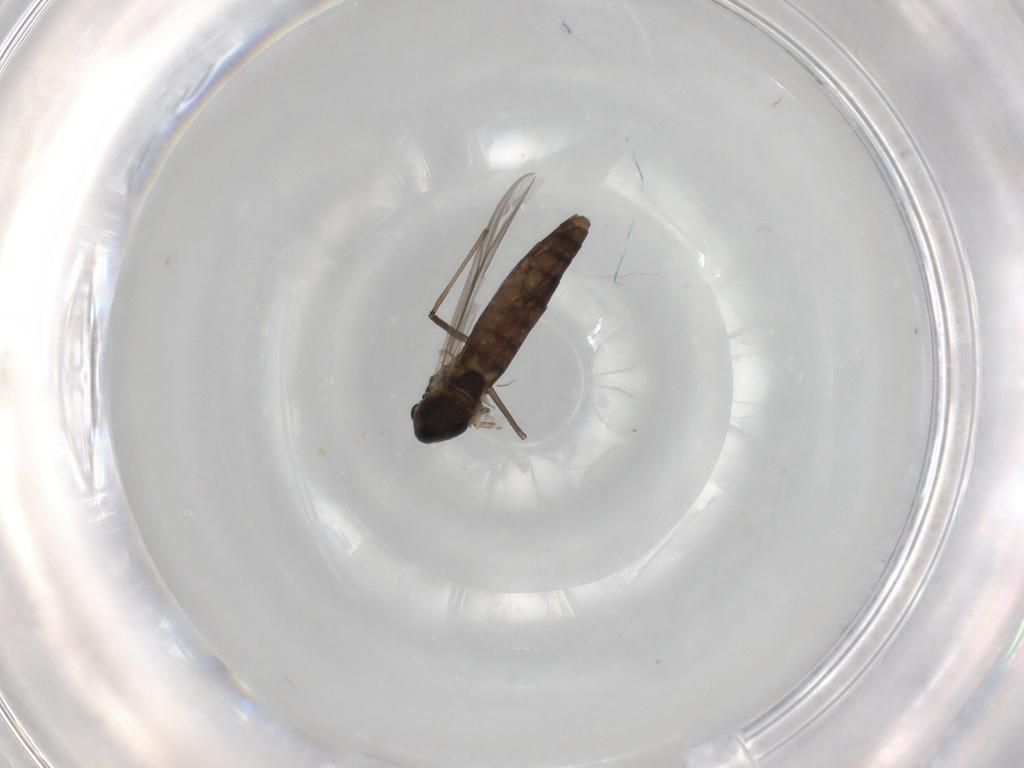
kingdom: Animalia
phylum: Arthropoda
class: Insecta
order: Diptera
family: Chironomidae
